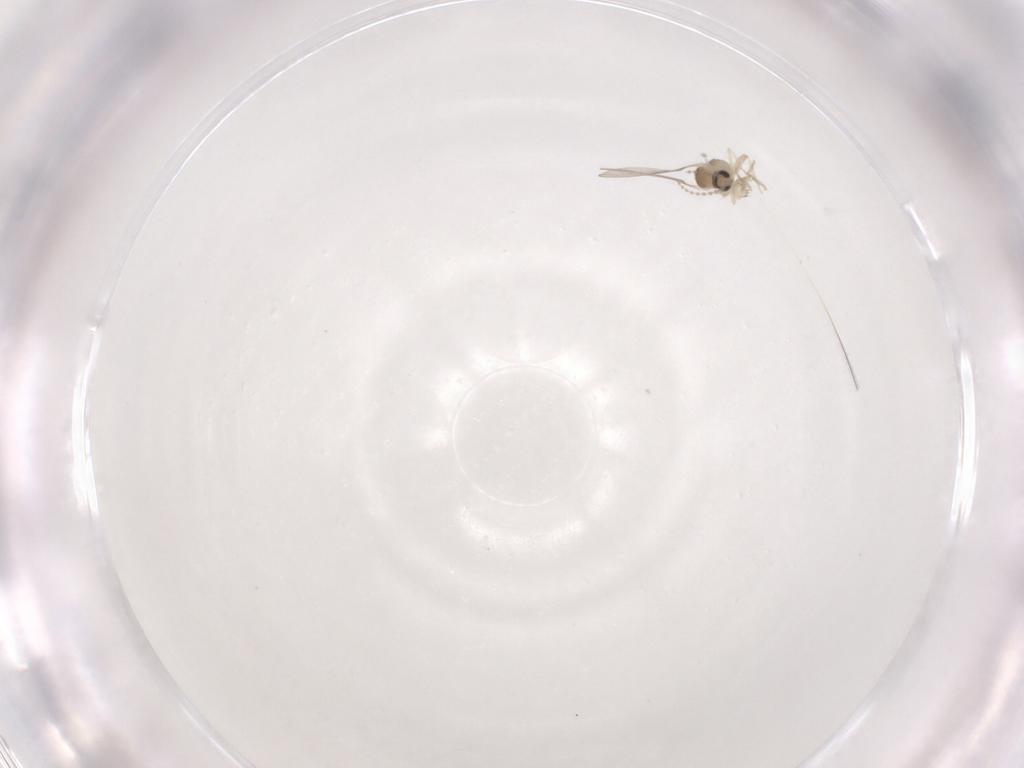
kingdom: Animalia
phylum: Arthropoda
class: Insecta
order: Diptera
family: Cecidomyiidae
